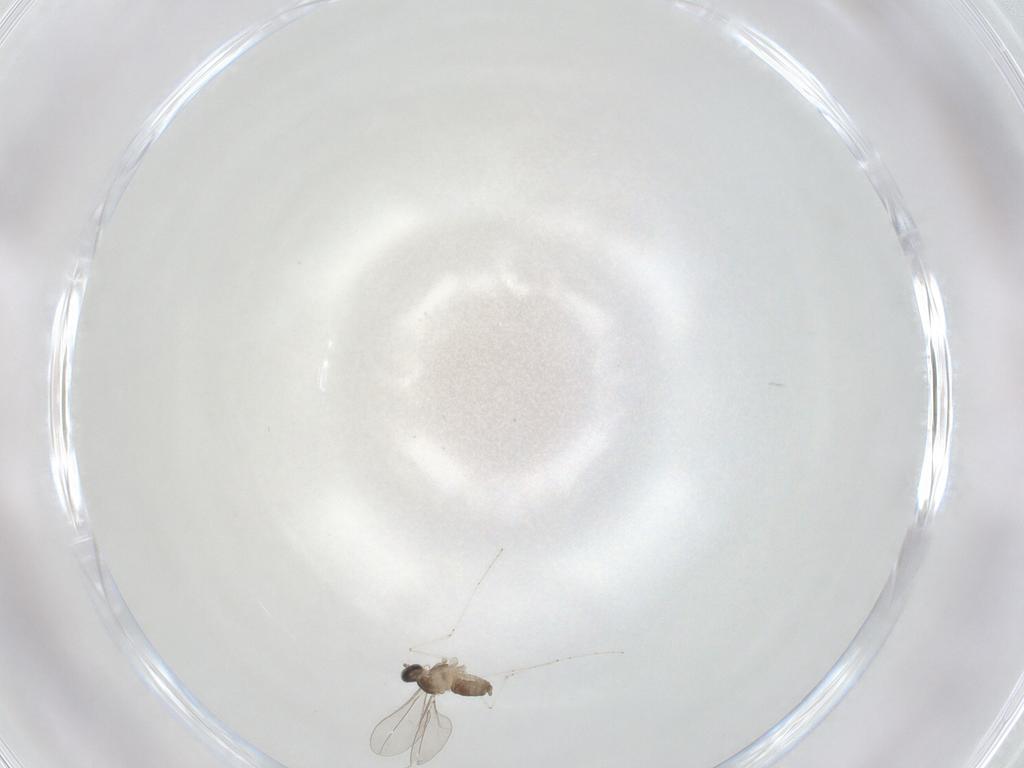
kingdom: Animalia
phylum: Arthropoda
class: Insecta
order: Diptera
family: Cecidomyiidae
